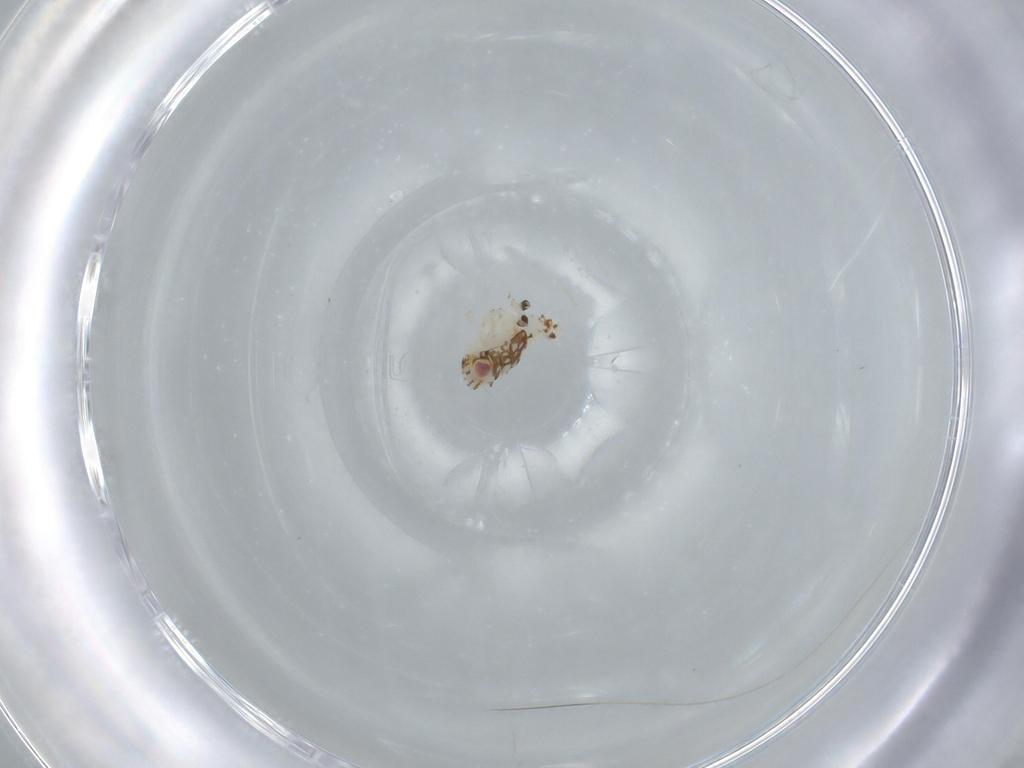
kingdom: Animalia
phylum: Arthropoda
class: Insecta
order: Hemiptera
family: Nogodinidae
